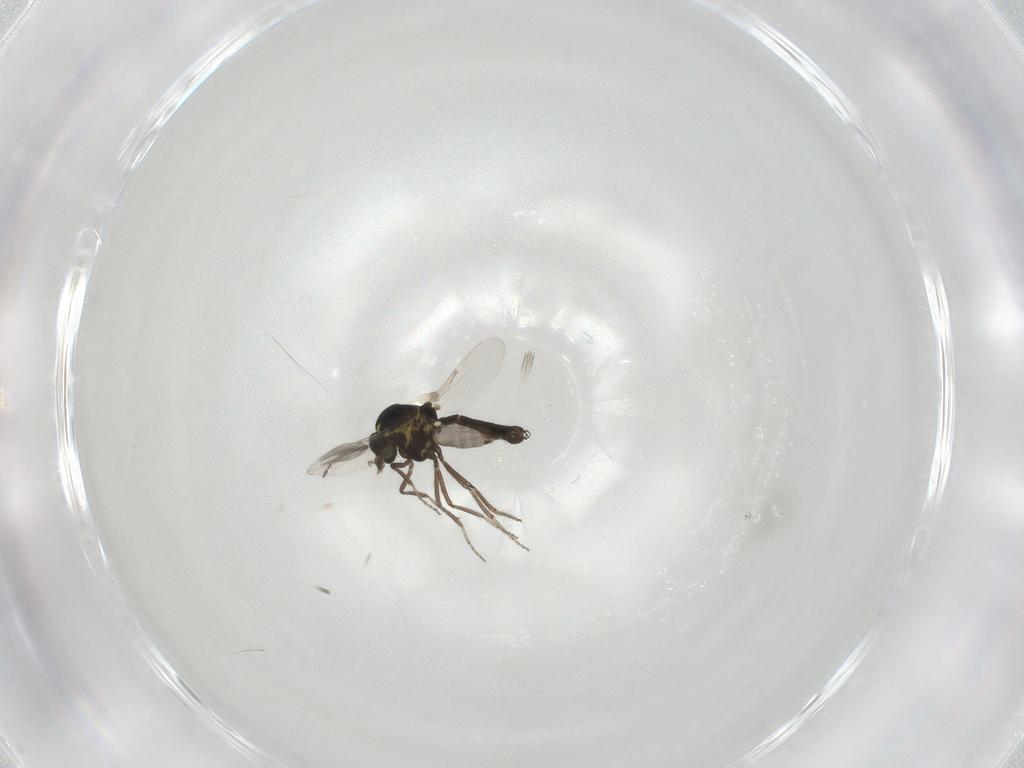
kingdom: Animalia
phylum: Arthropoda
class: Insecta
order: Diptera
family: Ceratopogonidae
